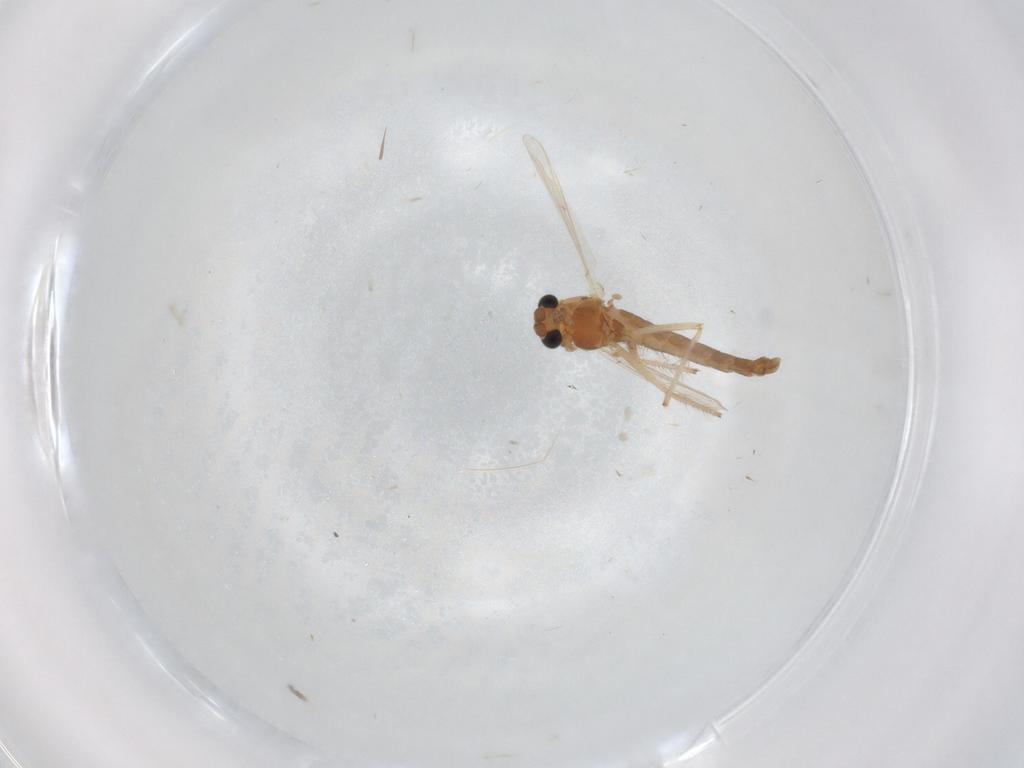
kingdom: Animalia
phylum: Arthropoda
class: Insecta
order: Diptera
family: Chironomidae
